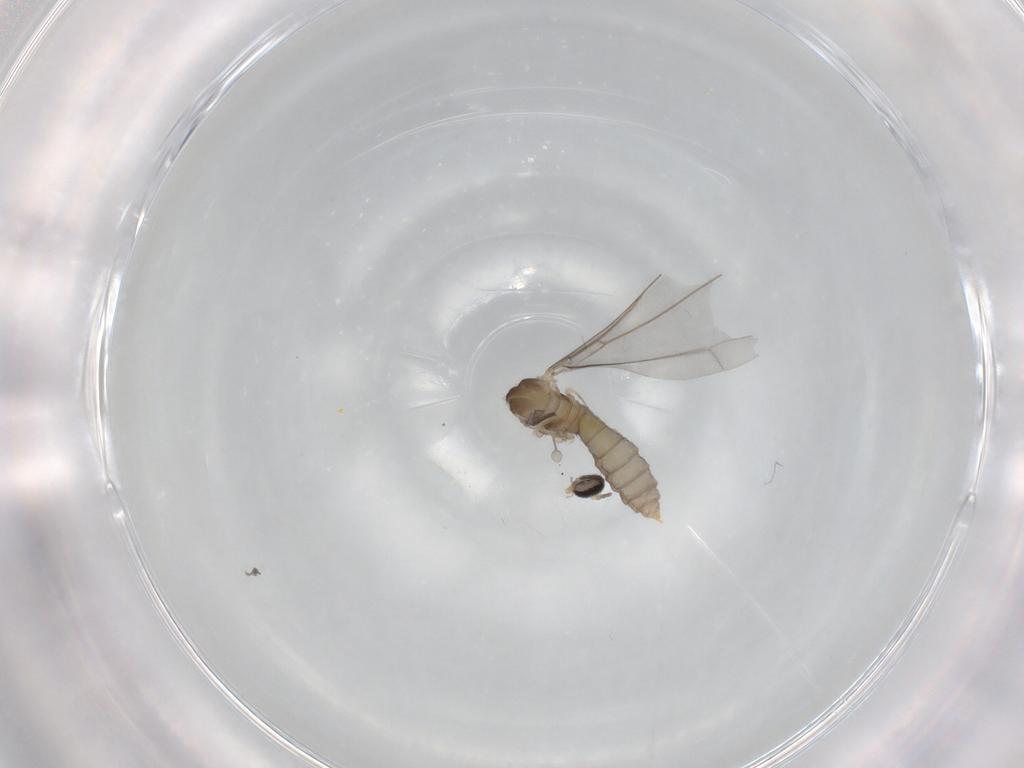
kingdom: Animalia
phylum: Arthropoda
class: Insecta
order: Diptera
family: Cecidomyiidae
